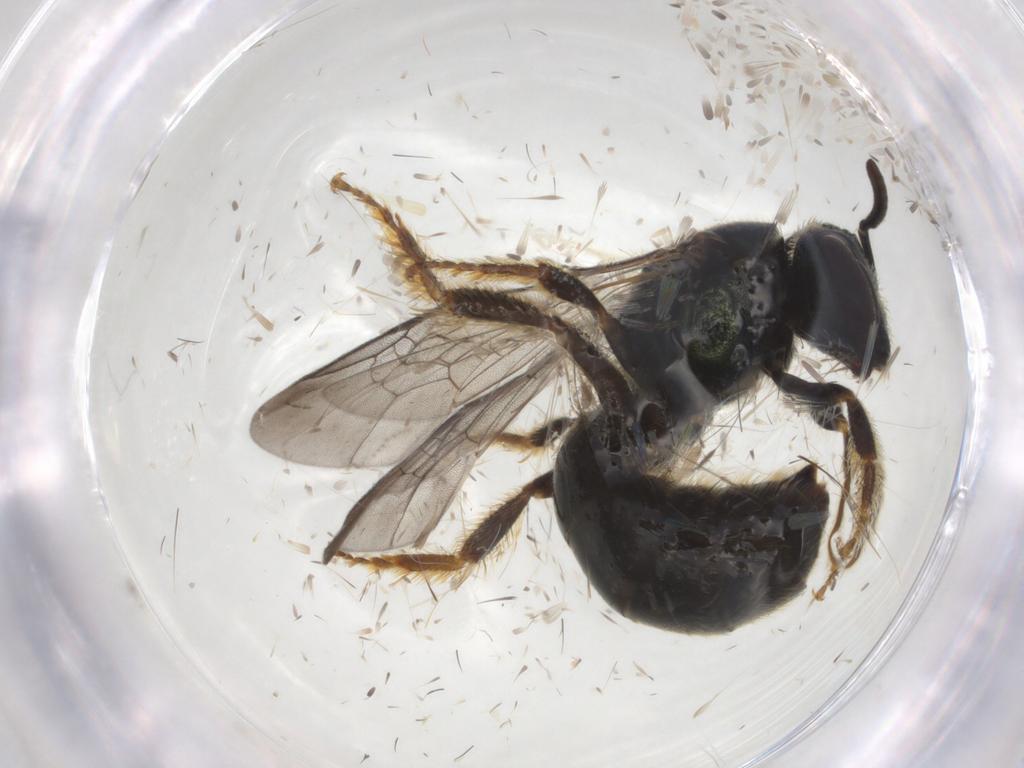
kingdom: Animalia
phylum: Arthropoda
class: Insecta
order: Hymenoptera
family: Halictidae
